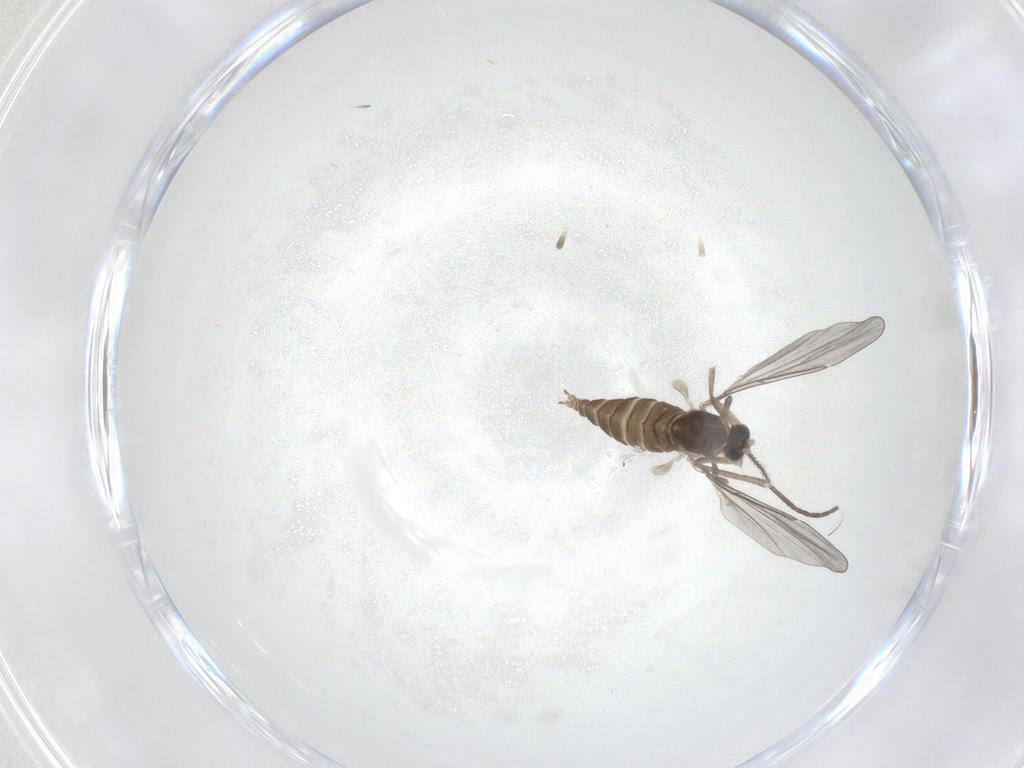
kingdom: Animalia
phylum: Arthropoda
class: Insecta
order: Diptera
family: Cecidomyiidae
